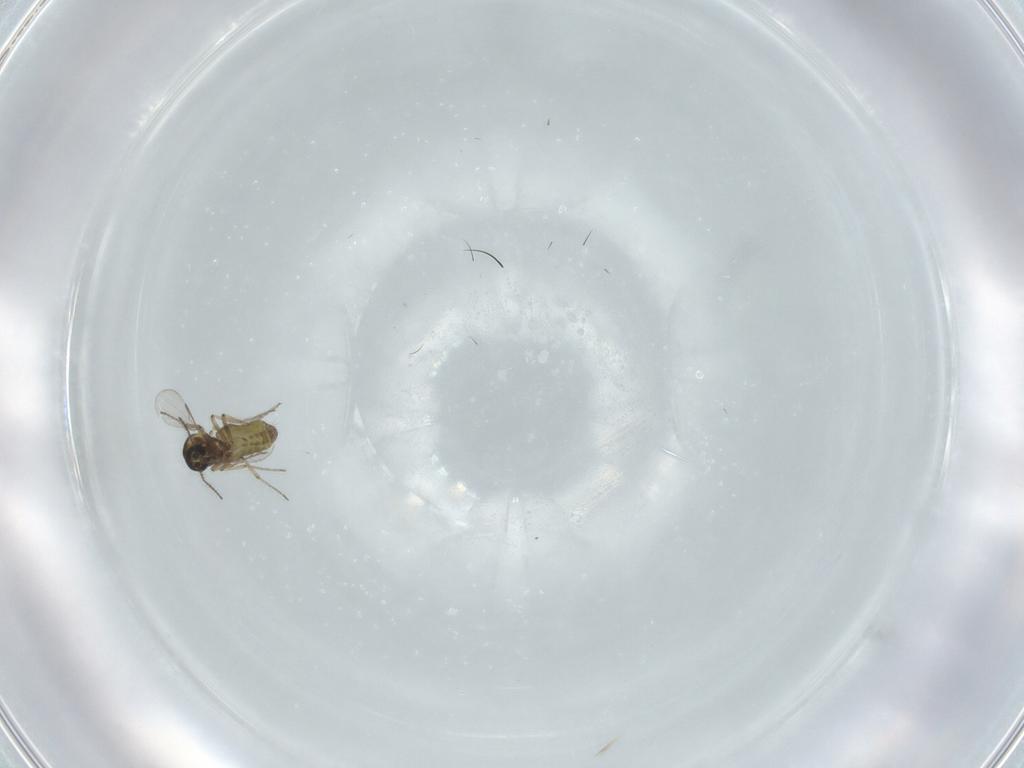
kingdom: Animalia
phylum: Arthropoda
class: Insecta
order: Diptera
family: Ceratopogonidae
